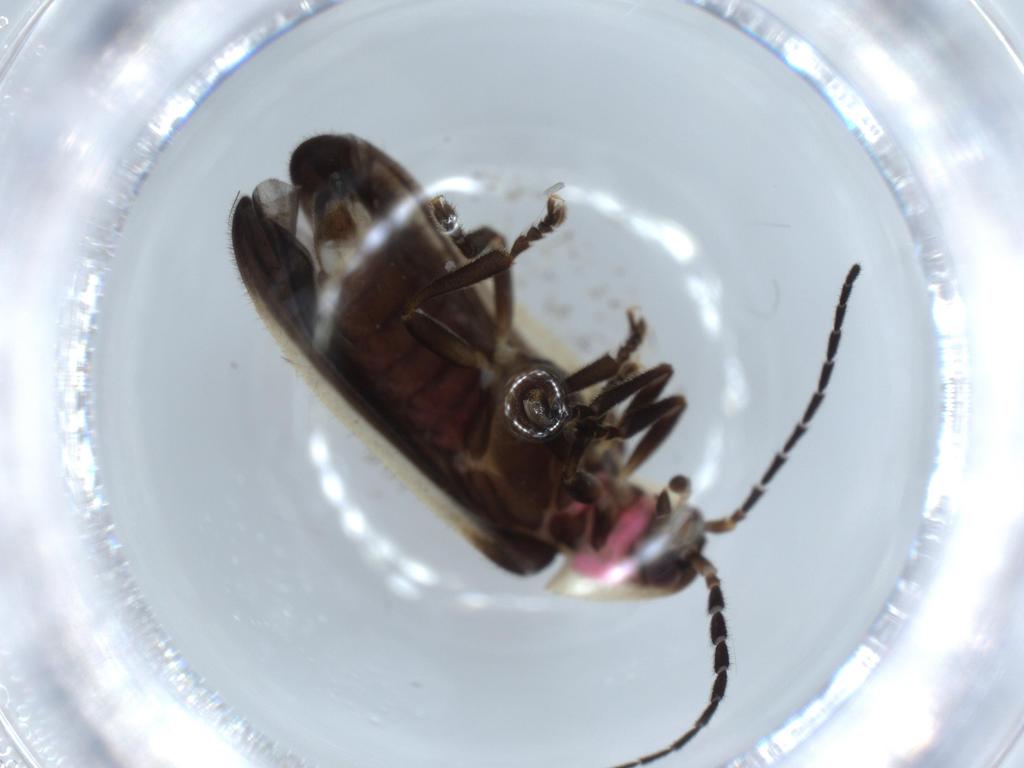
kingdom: Animalia
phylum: Arthropoda
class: Insecta
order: Coleoptera
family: Lampyridae
